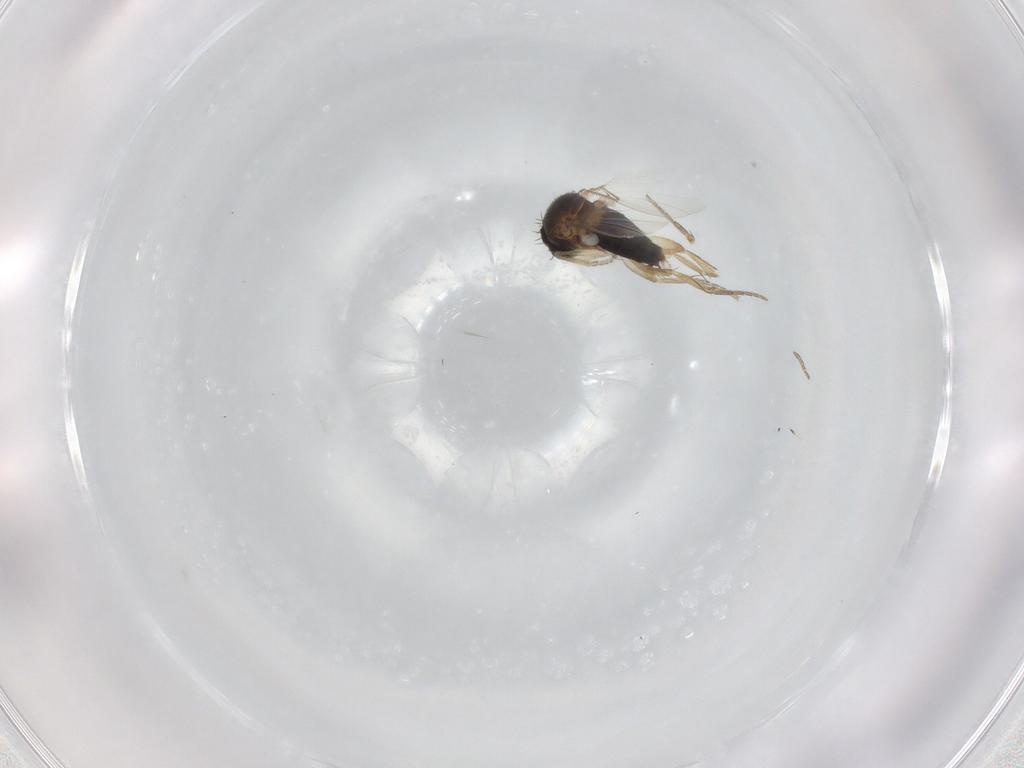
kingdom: Animalia
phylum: Arthropoda
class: Insecta
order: Diptera
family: Phoridae
